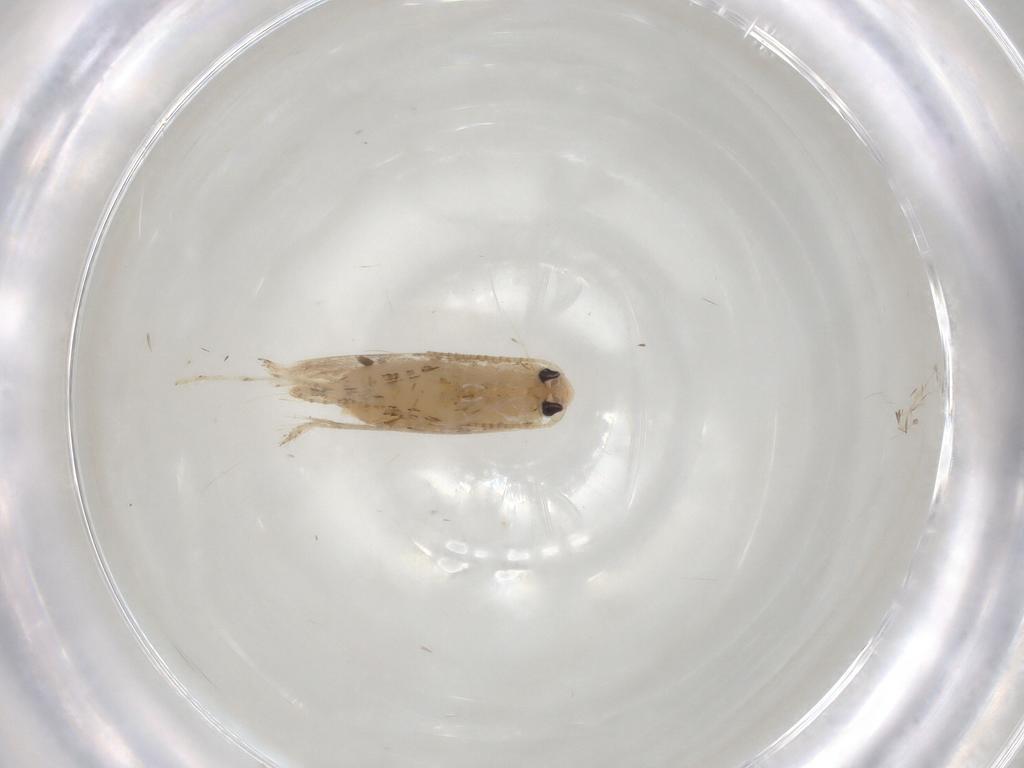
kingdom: Animalia
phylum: Arthropoda
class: Insecta
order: Lepidoptera
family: Gracillariidae
